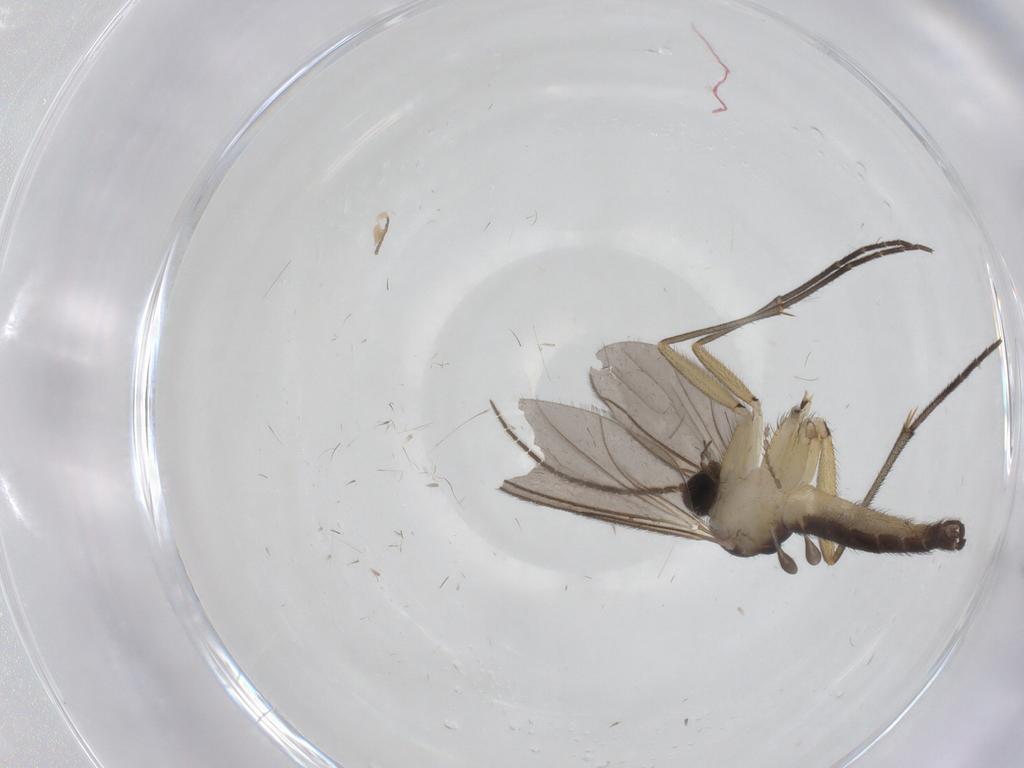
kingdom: Animalia
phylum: Arthropoda
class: Insecta
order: Diptera
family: Sciaridae
